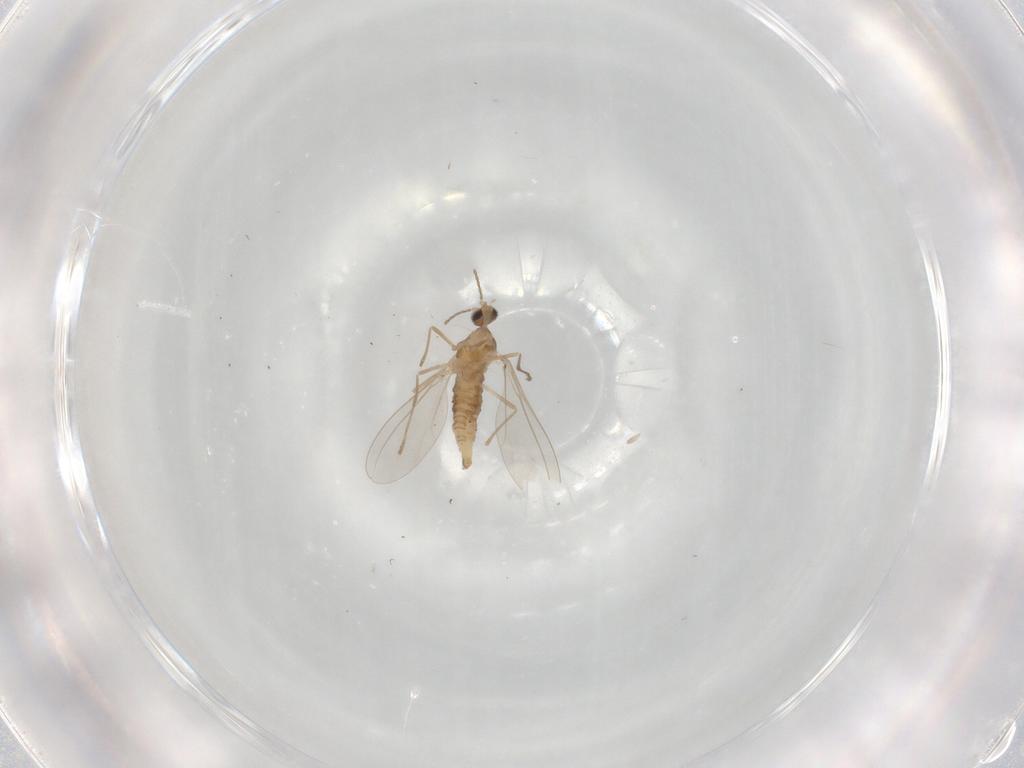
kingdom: Animalia
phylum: Arthropoda
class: Insecta
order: Diptera
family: Cecidomyiidae
